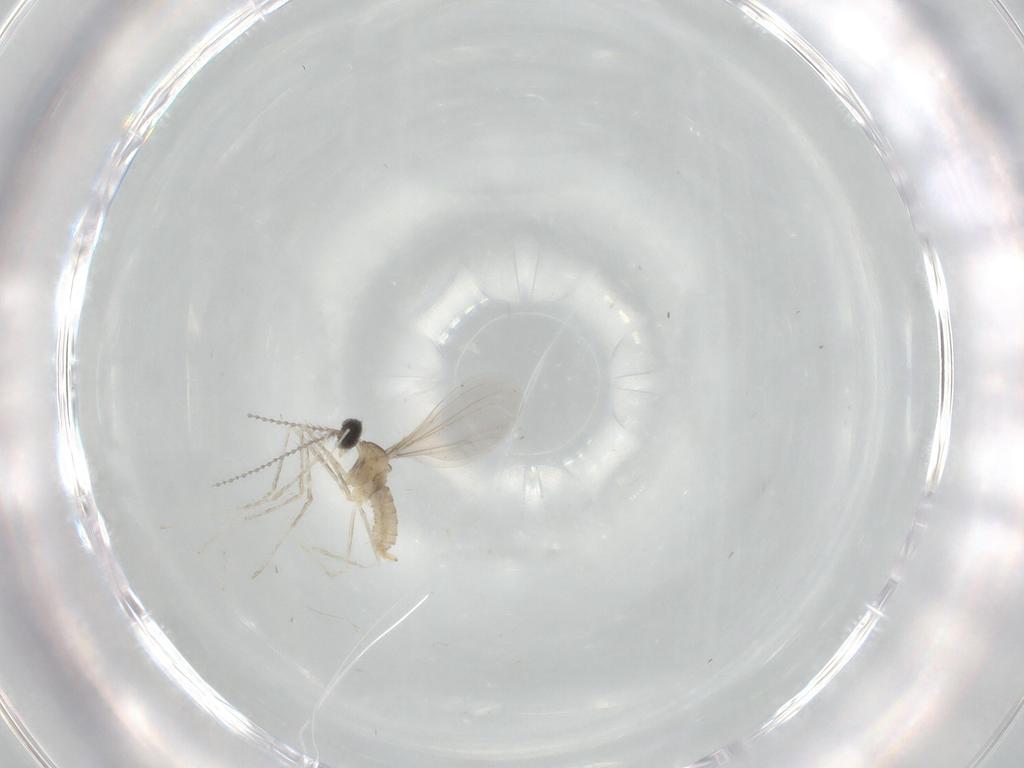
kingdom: Animalia
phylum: Arthropoda
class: Insecta
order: Diptera
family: Cecidomyiidae
